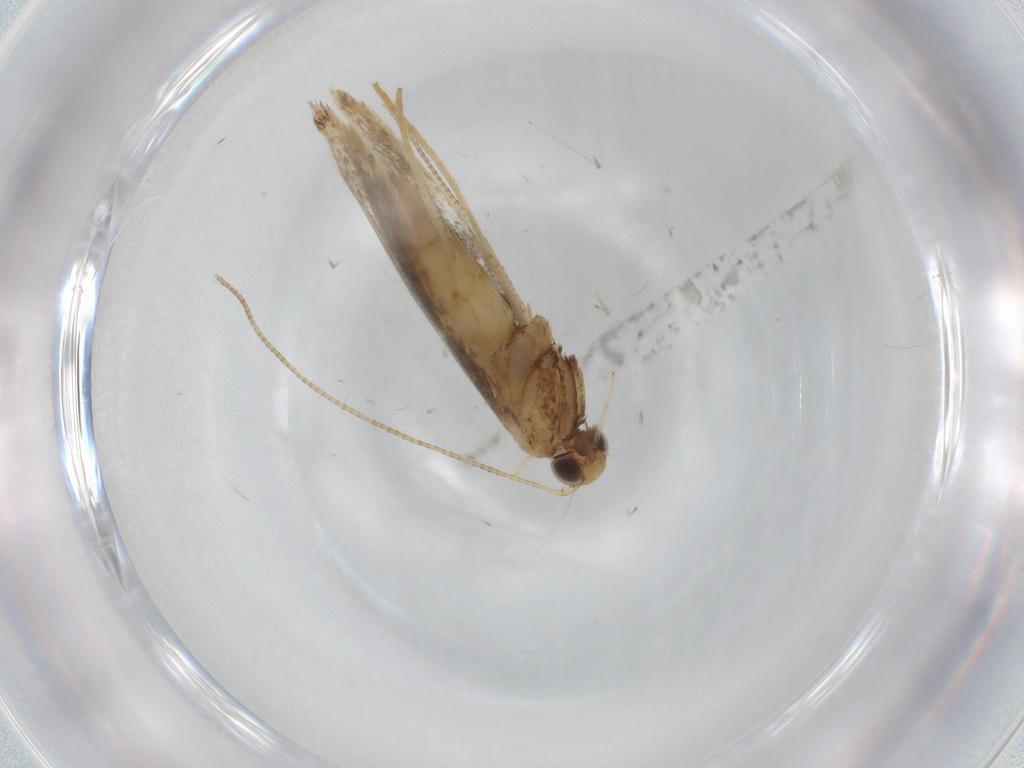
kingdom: Animalia
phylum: Arthropoda
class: Insecta
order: Lepidoptera
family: Gracillariidae
